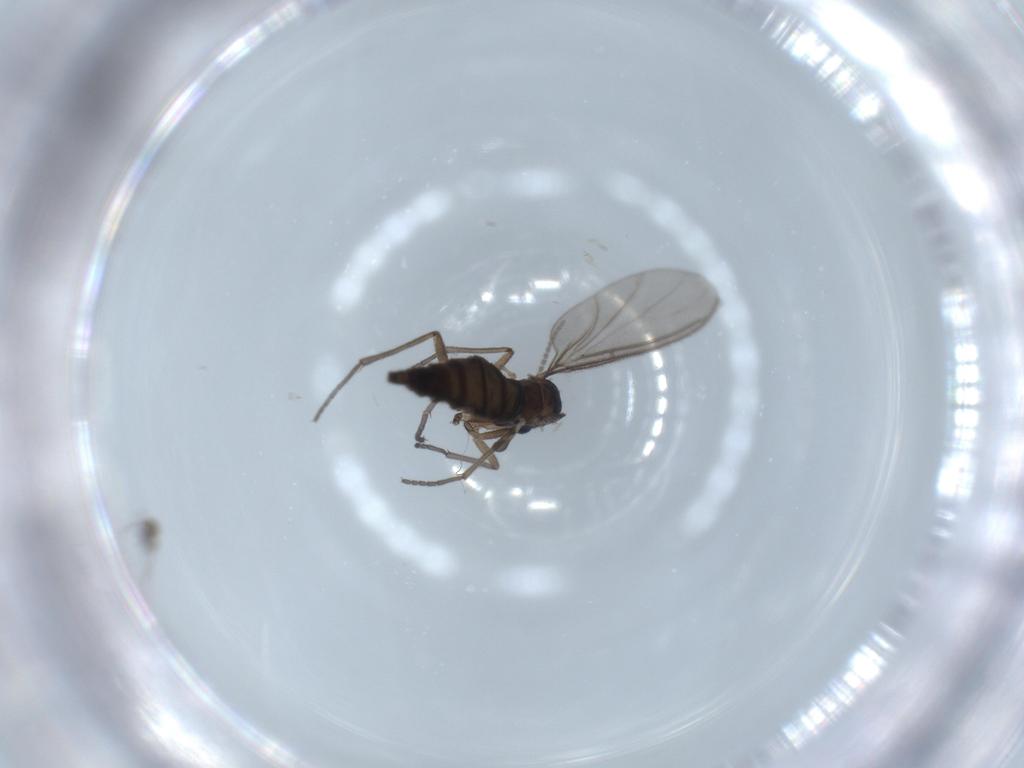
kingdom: Animalia
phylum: Arthropoda
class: Insecta
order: Diptera
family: Sciaridae
